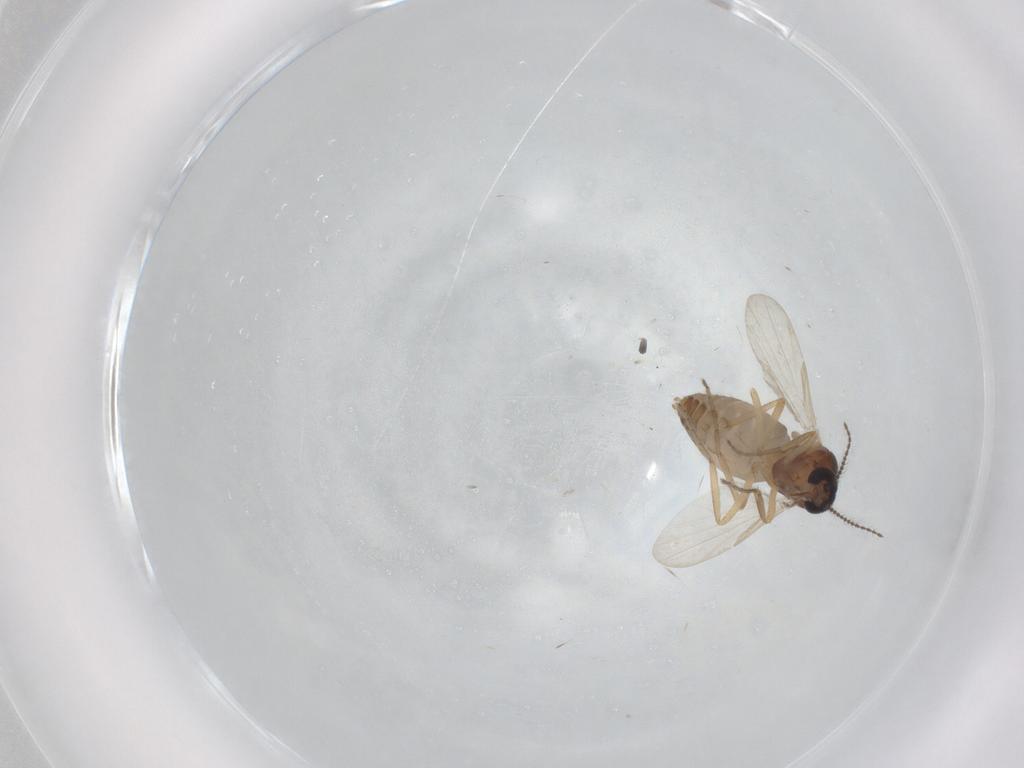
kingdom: Animalia
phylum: Arthropoda
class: Insecta
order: Diptera
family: Ceratopogonidae
